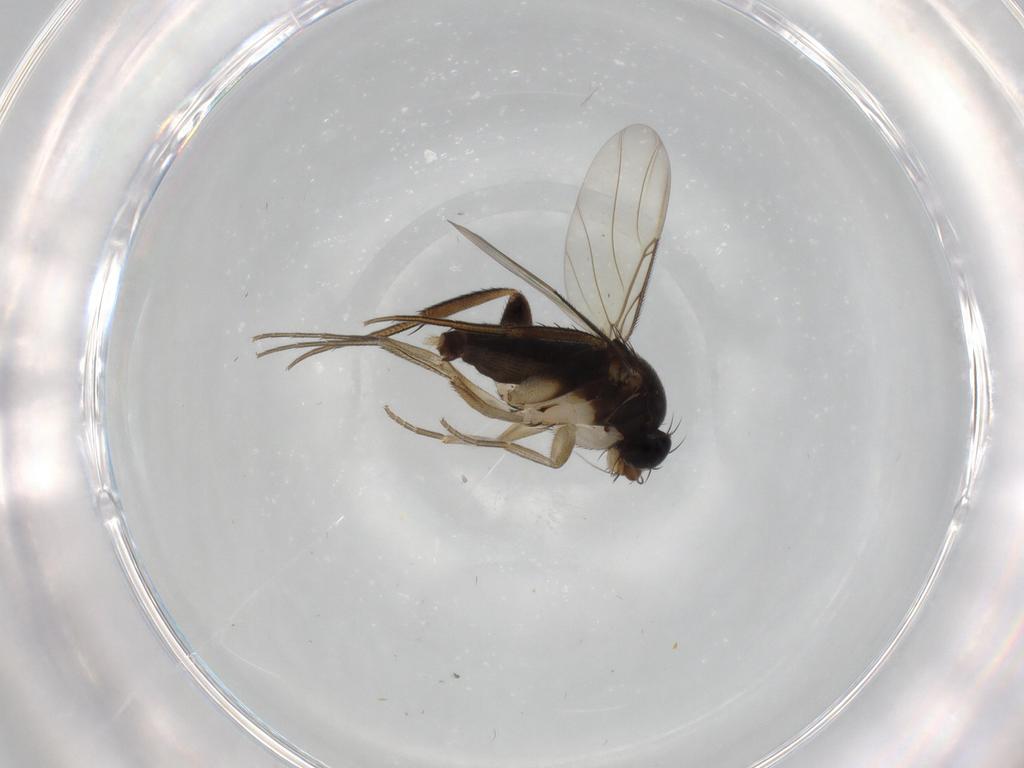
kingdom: Animalia
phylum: Arthropoda
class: Insecta
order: Diptera
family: Phoridae
